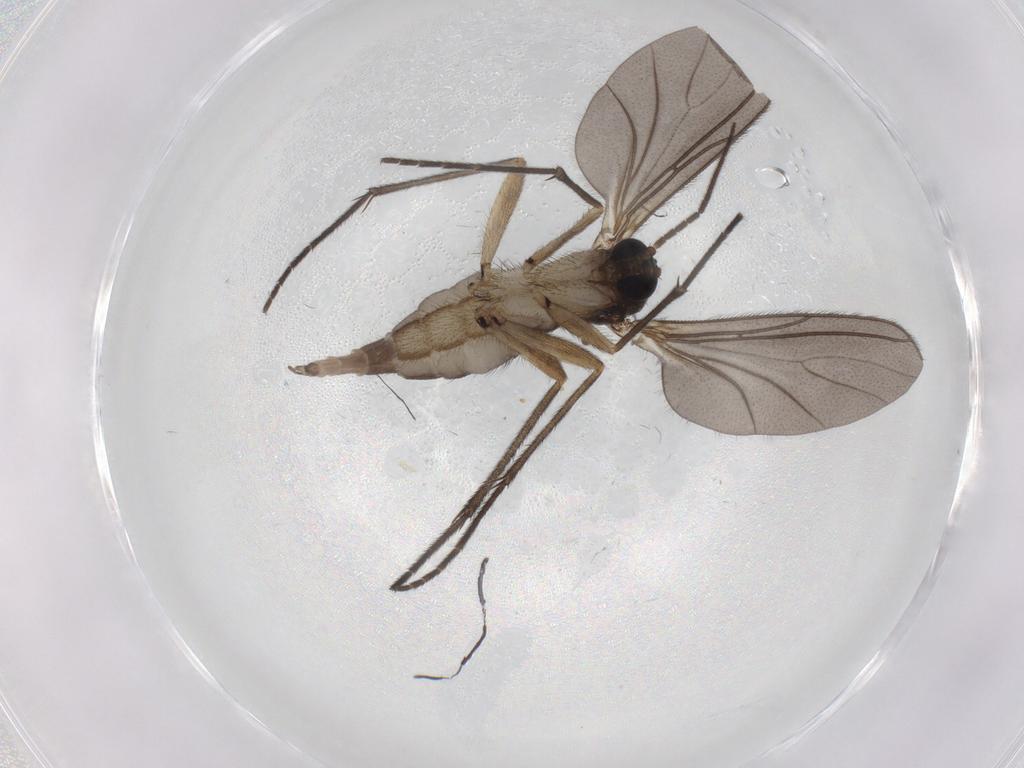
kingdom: Animalia
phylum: Arthropoda
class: Insecta
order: Diptera
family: Sciaridae
